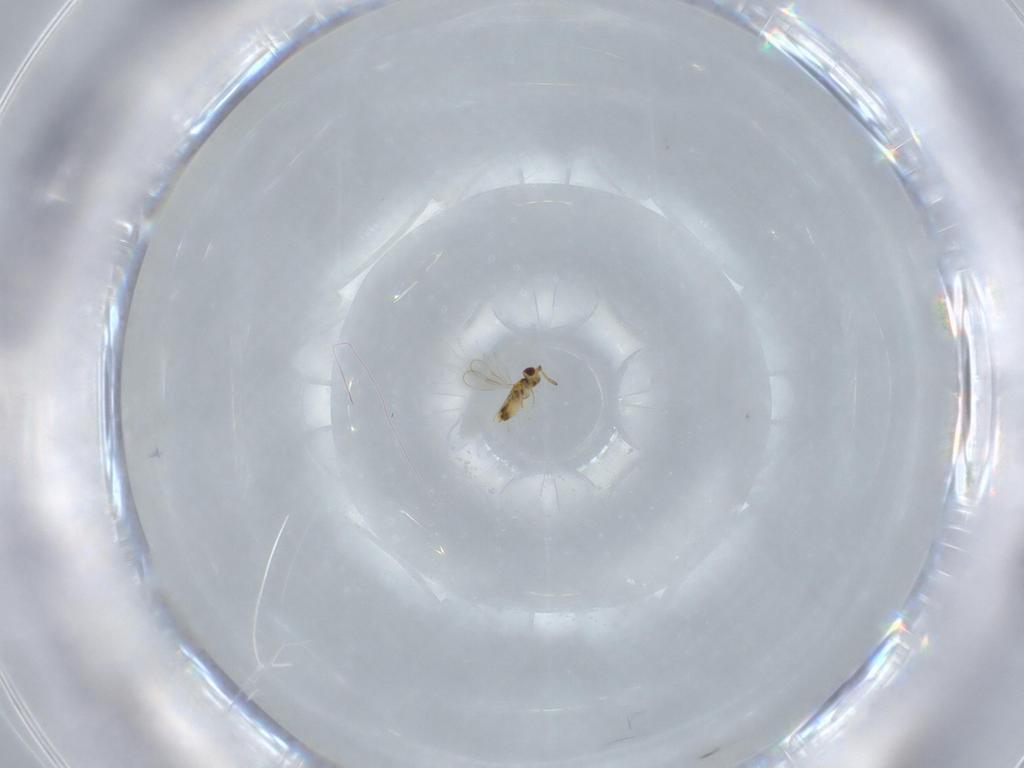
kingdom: Animalia
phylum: Arthropoda
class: Insecta
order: Hymenoptera
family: Aphelinidae
